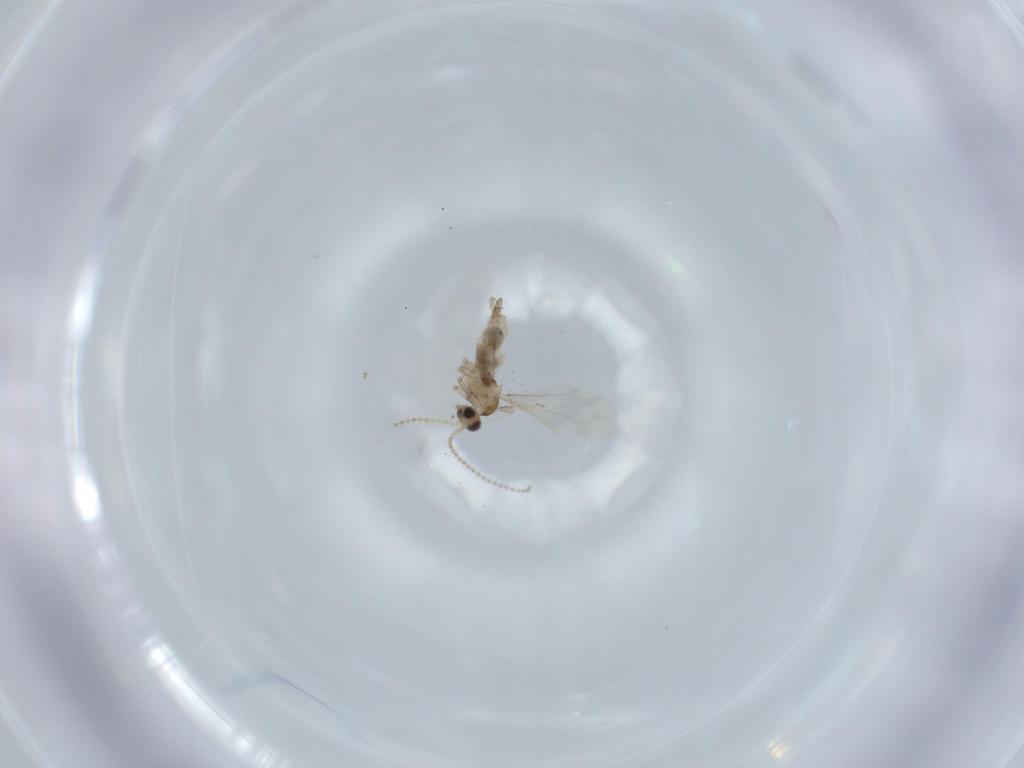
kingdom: Animalia
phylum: Arthropoda
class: Insecta
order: Diptera
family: Cecidomyiidae
